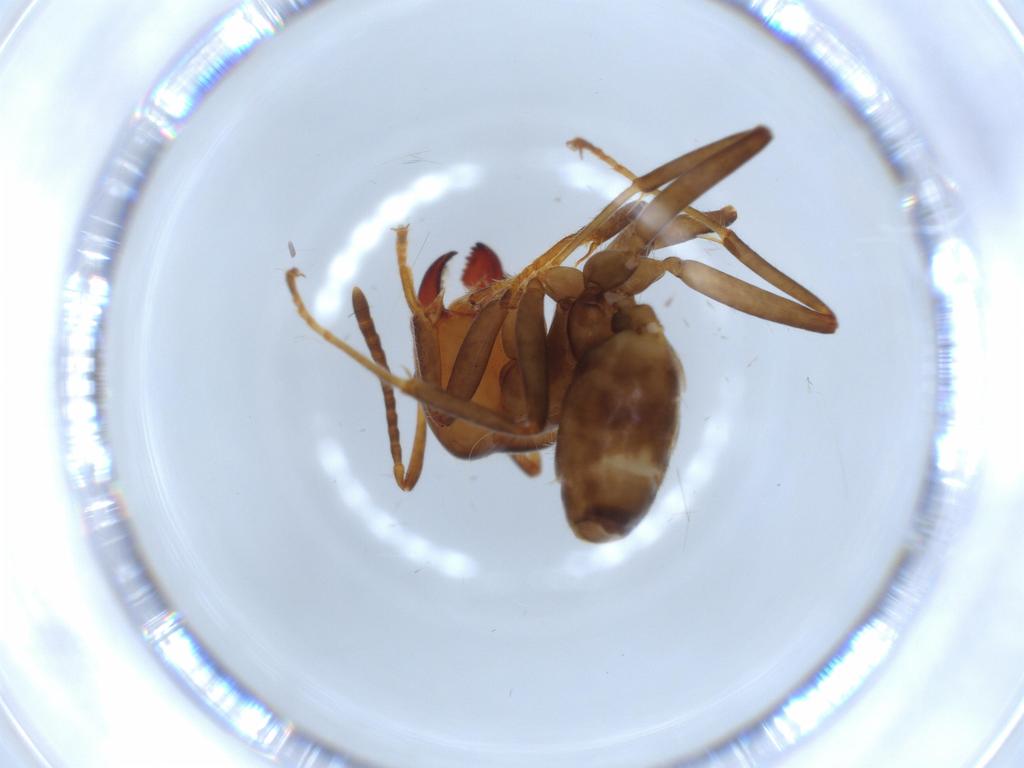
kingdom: Animalia
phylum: Arthropoda
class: Insecta
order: Hymenoptera
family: Formicidae
